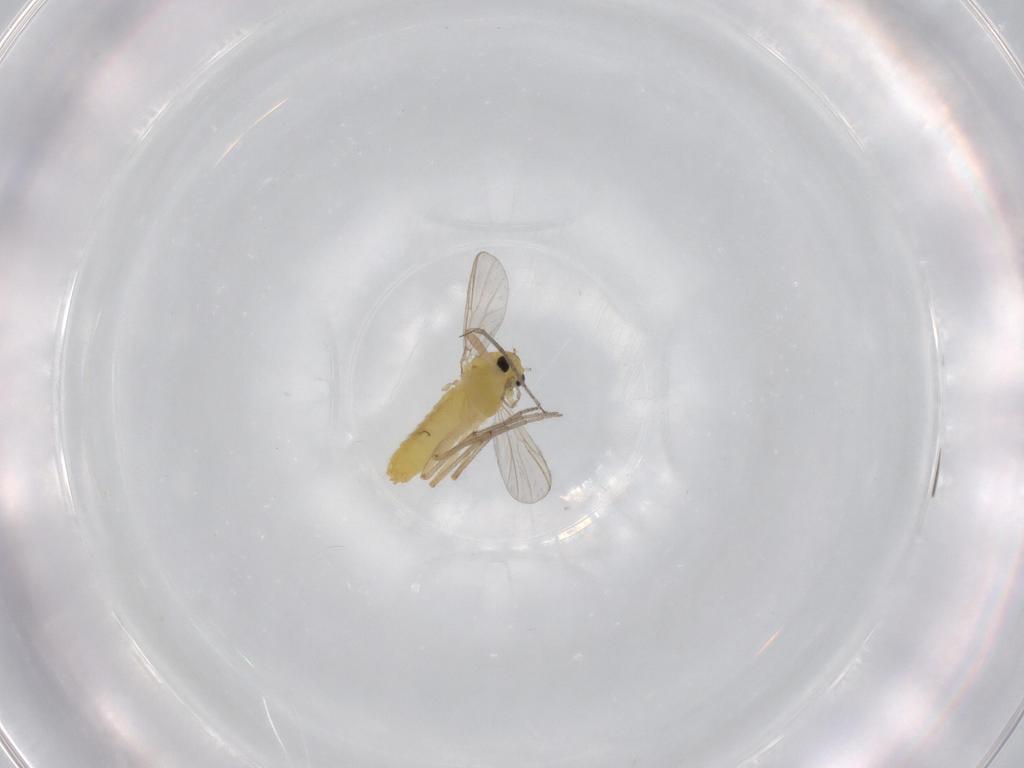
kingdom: Animalia
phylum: Arthropoda
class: Insecta
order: Diptera
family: Chironomidae
